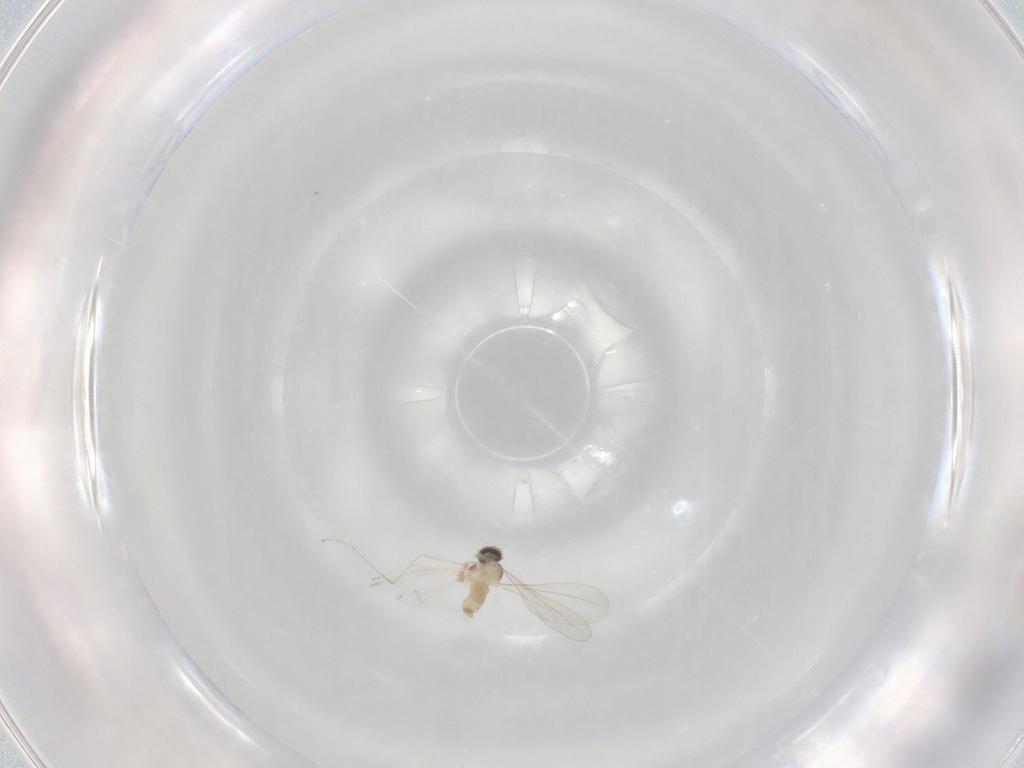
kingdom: Animalia
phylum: Arthropoda
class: Insecta
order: Diptera
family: Cecidomyiidae
